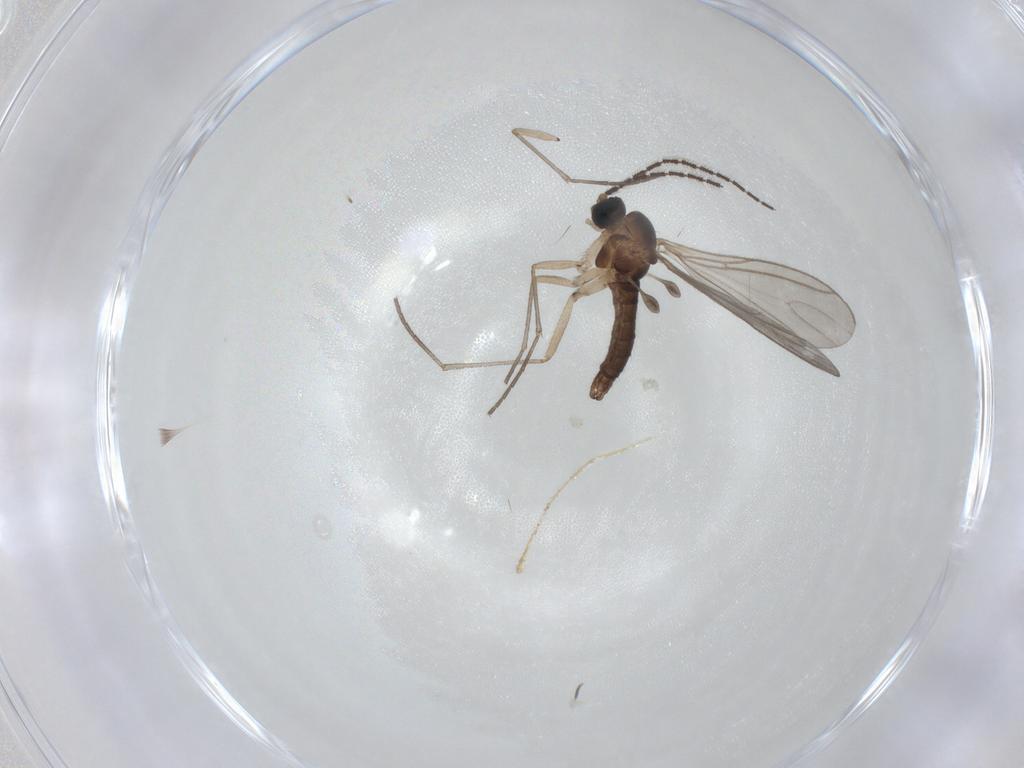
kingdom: Animalia
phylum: Arthropoda
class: Insecta
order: Diptera
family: Sciaridae
